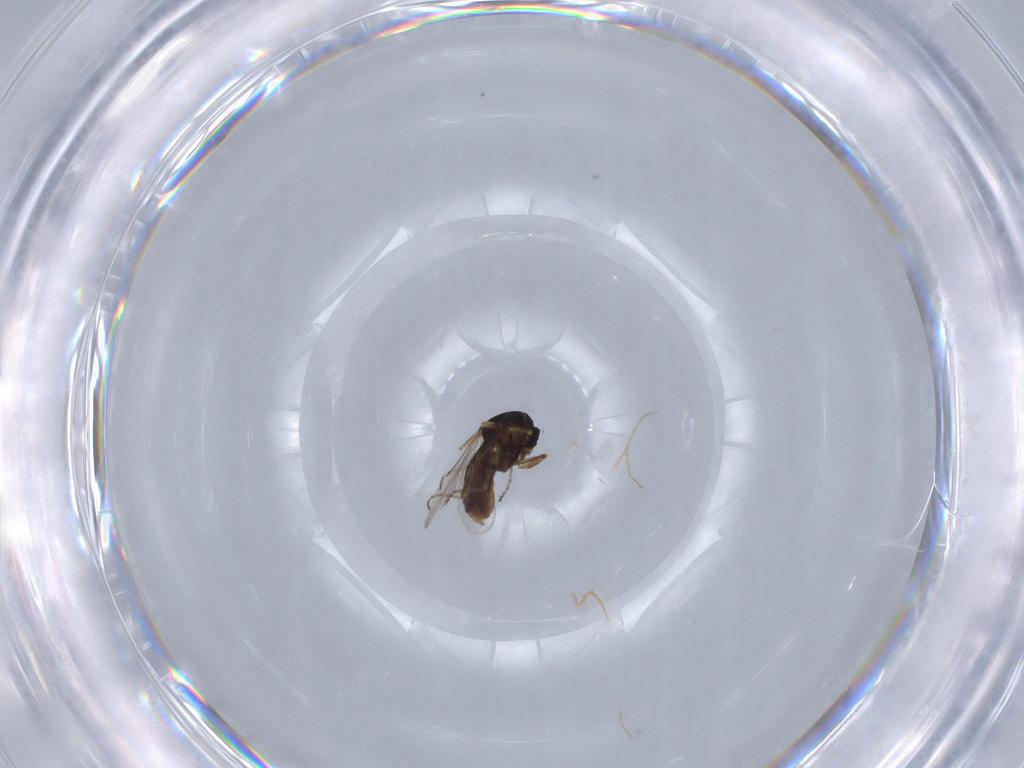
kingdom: Animalia
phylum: Arthropoda
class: Insecta
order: Diptera
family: Ceratopogonidae
